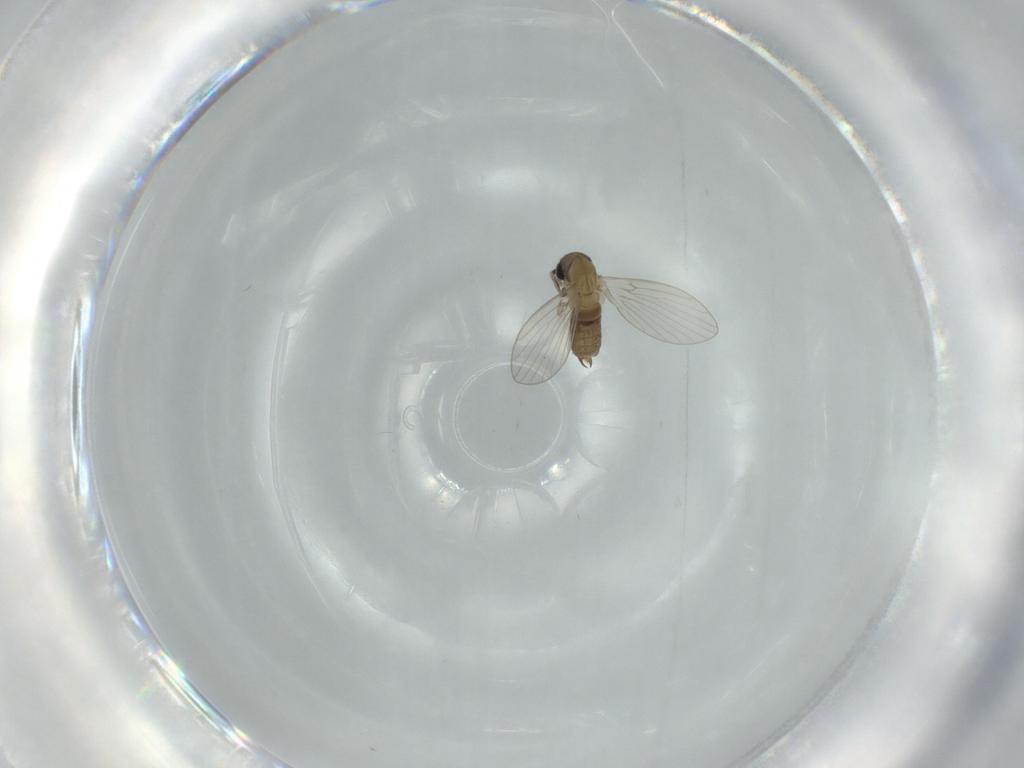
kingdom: Animalia
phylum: Arthropoda
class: Insecta
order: Diptera
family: Psychodidae
